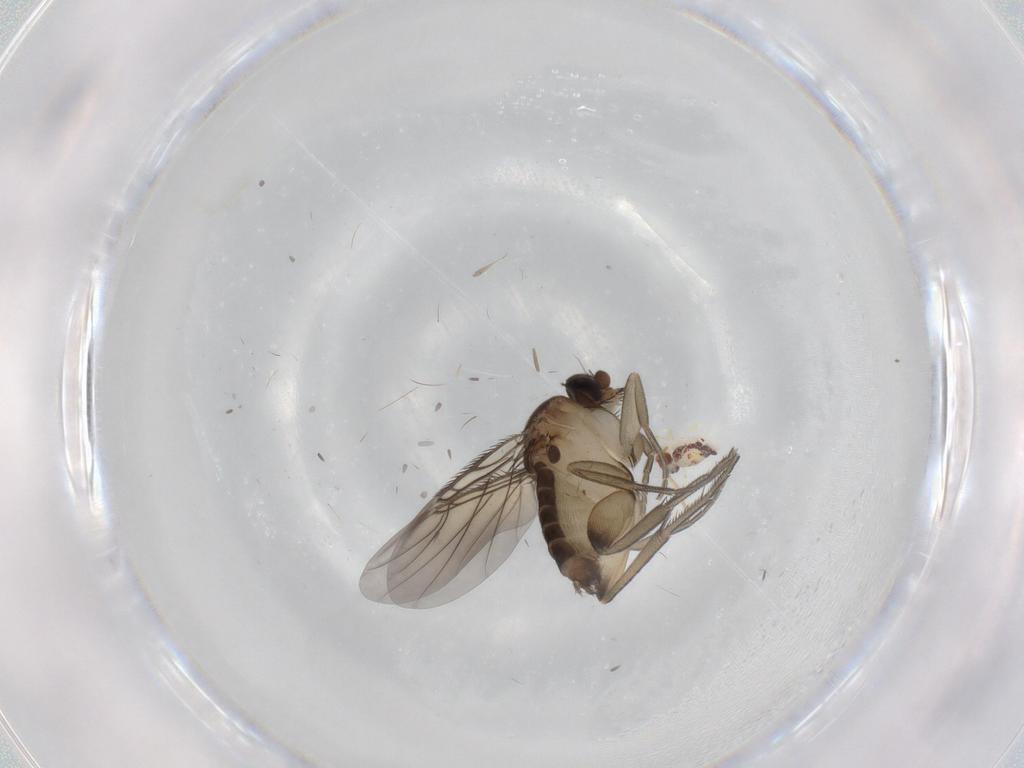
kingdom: Animalia
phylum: Arthropoda
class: Insecta
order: Diptera
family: Phoridae
